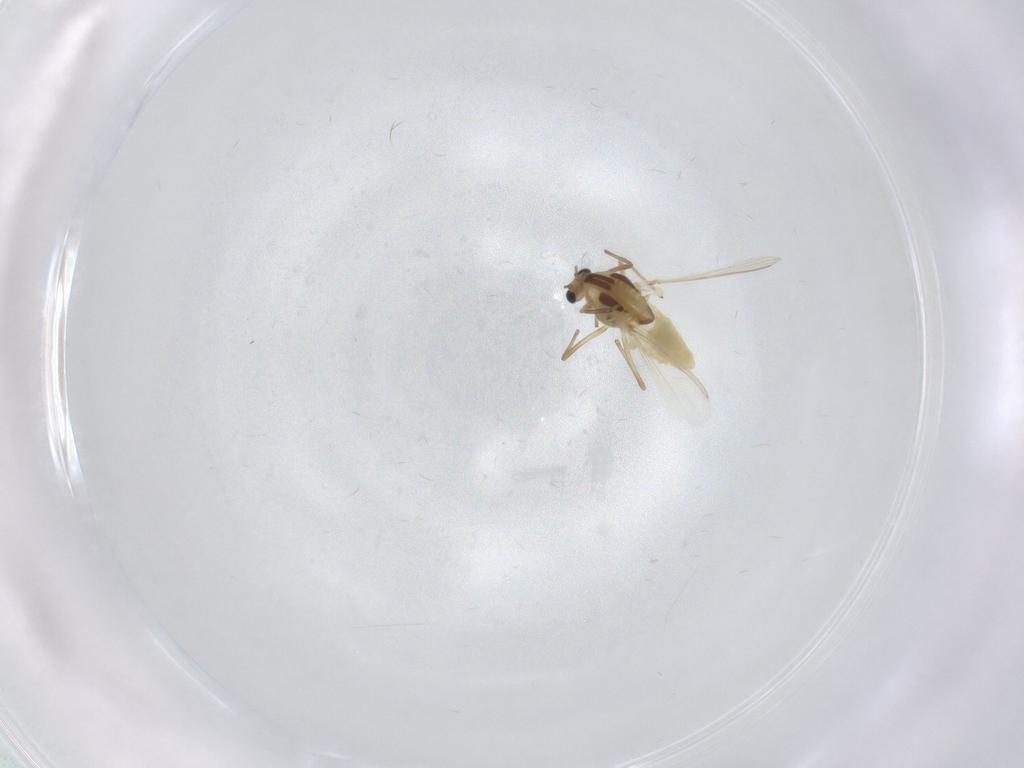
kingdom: Animalia
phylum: Arthropoda
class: Insecta
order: Diptera
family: Chironomidae
